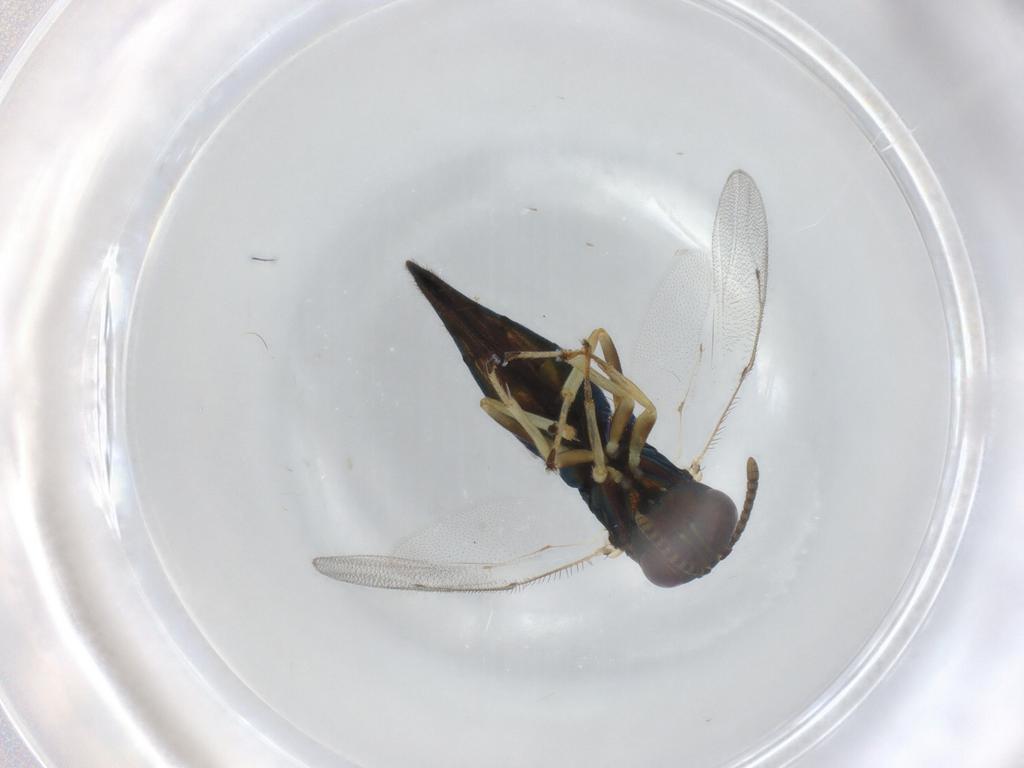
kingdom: Animalia
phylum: Arthropoda
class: Insecta
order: Hymenoptera
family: Pteromalidae
